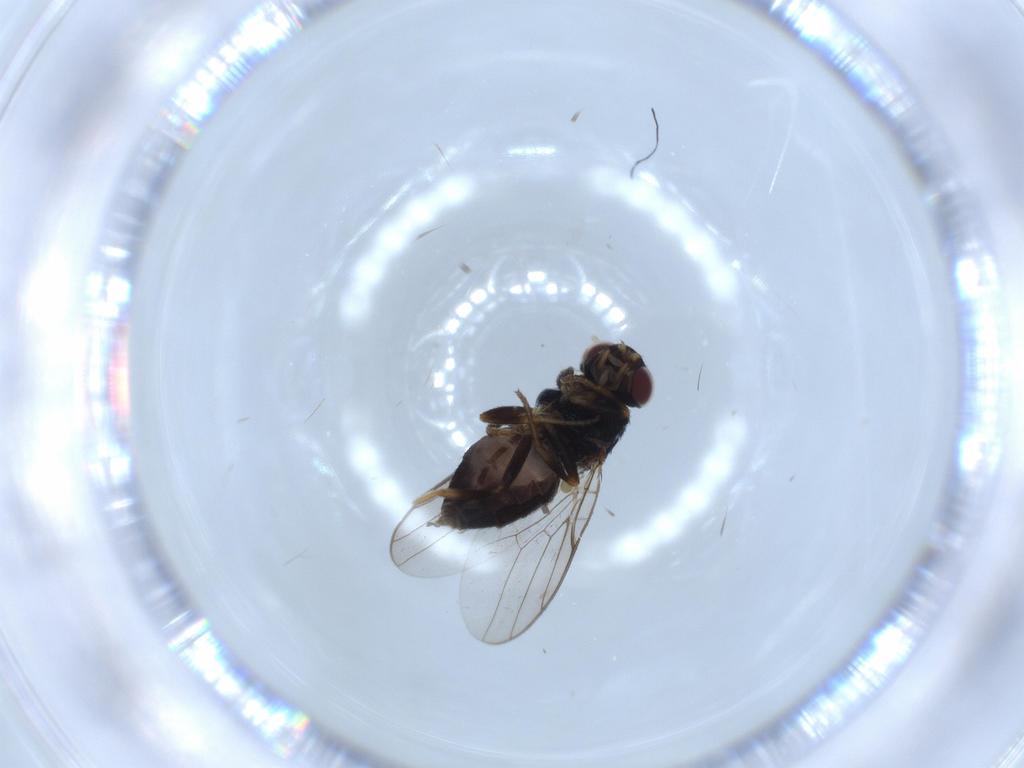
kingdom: Animalia
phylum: Arthropoda
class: Insecta
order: Diptera
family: Chloropidae
